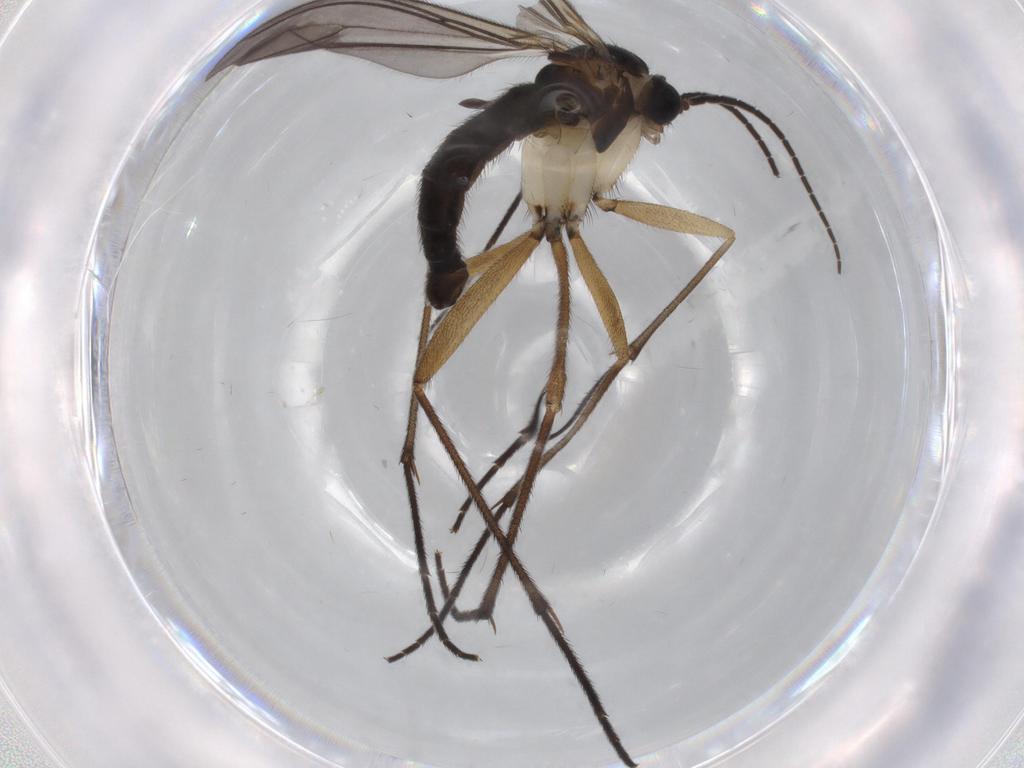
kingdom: Animalia
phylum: Arthropoda
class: Insecta
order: Diptera
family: Sciaridae
